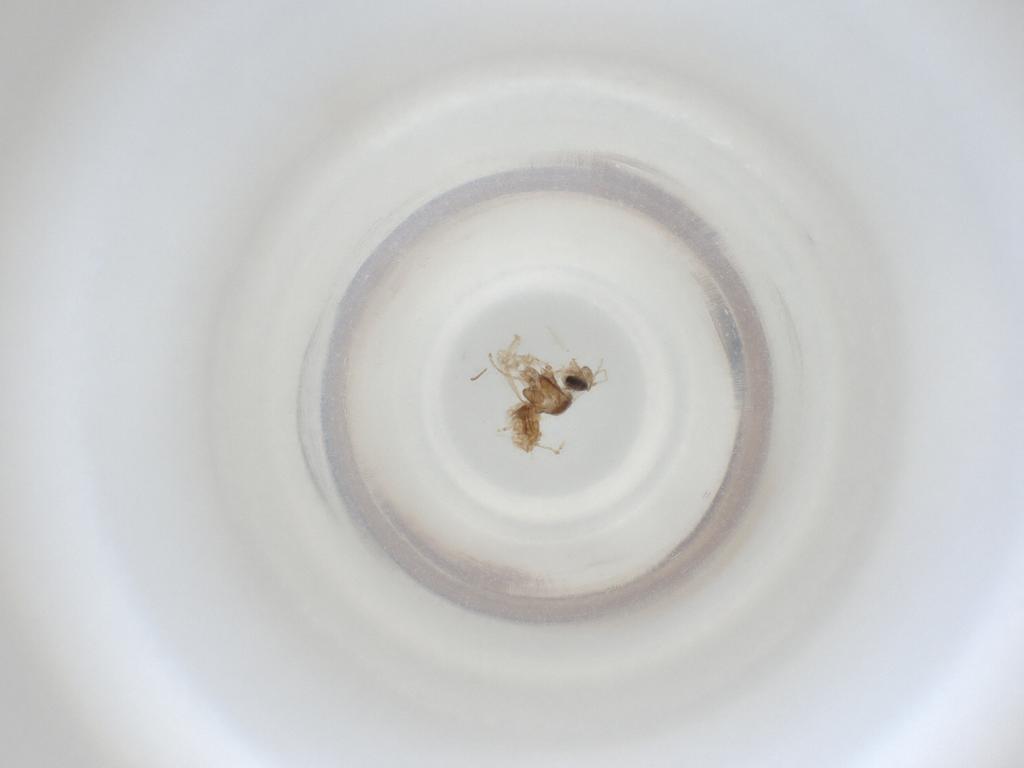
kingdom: Animalia
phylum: Arthropoda
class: Insecta
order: Diptera
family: Cecidomyiidae
